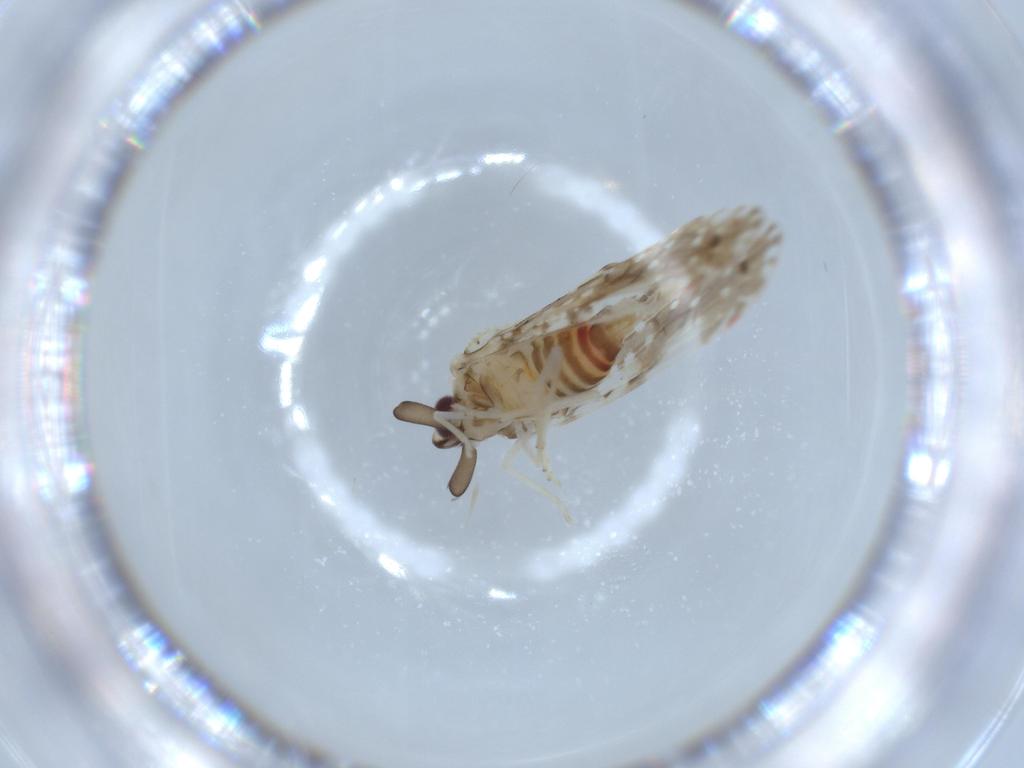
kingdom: Animalia
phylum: Arthropoda
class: Insecta
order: Hemiptera
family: Derbidae
